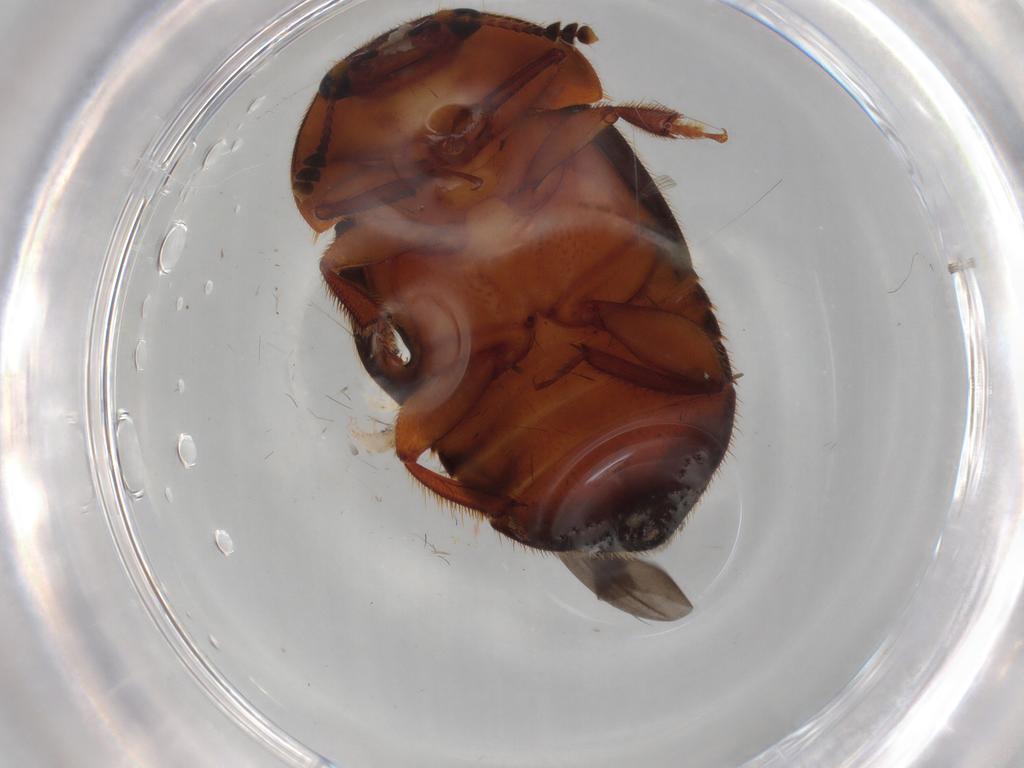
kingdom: Animalia
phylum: Arthropoda
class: Insecta
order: Coleoptera
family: Nitidulidae
